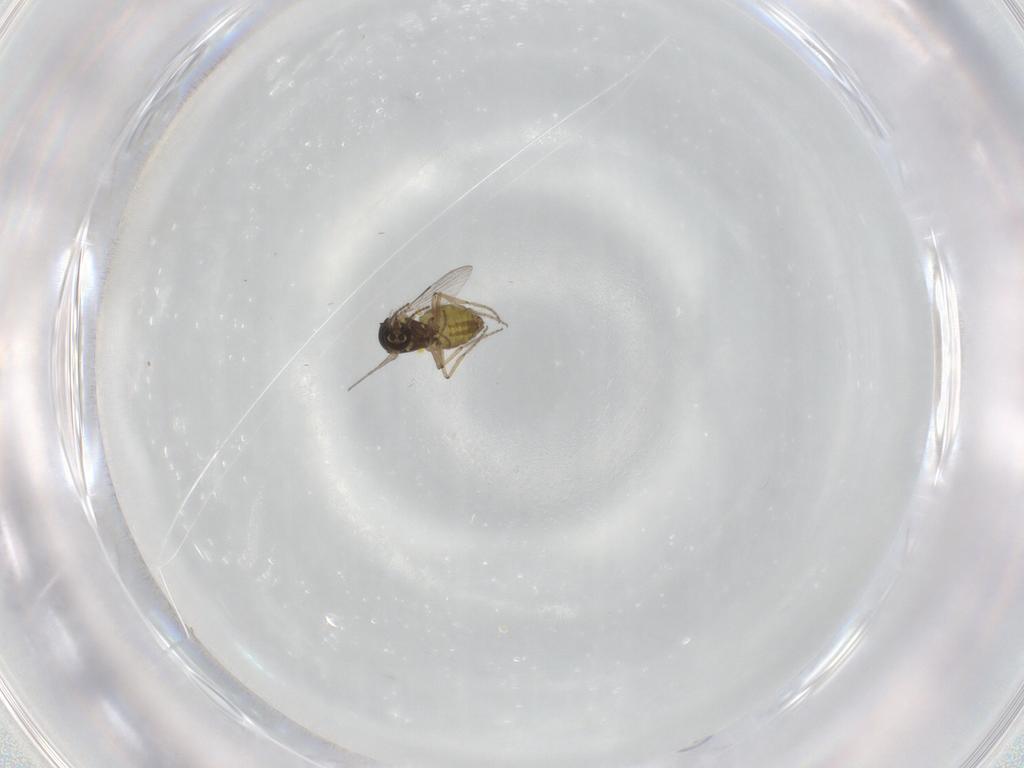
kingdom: Animalia
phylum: Arthropoda
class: Insecta
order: Diptera
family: Ceratopogonidae
